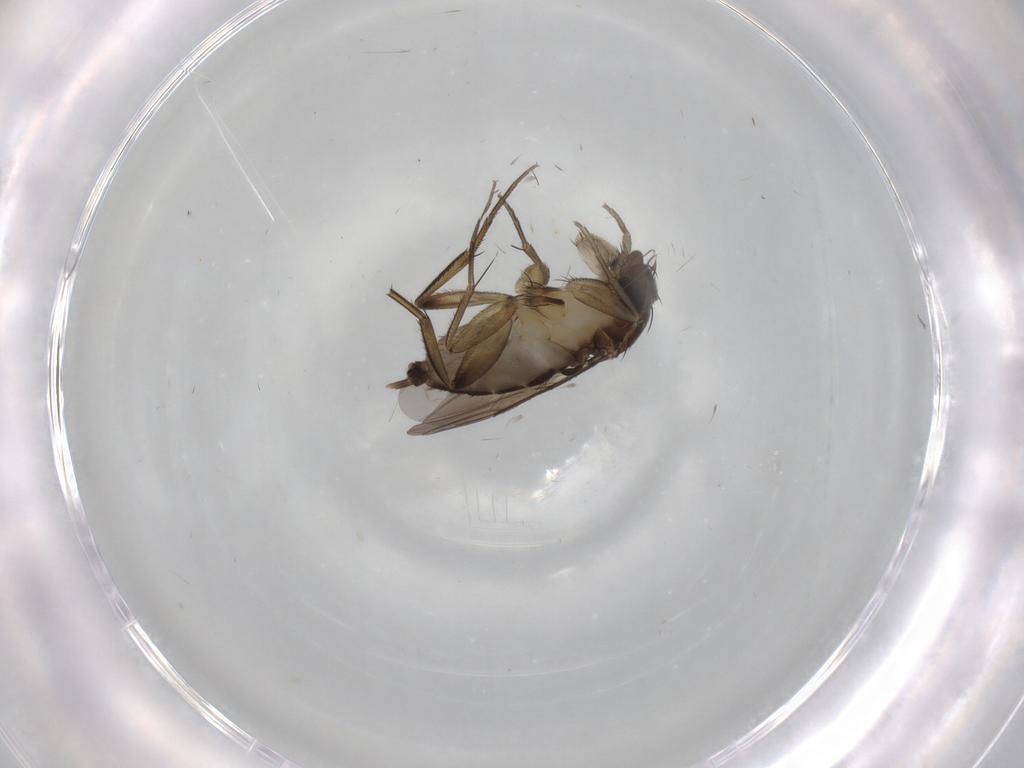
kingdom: Animalia
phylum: Arthropoda
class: Insecta
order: Diptera
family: Phoridae
